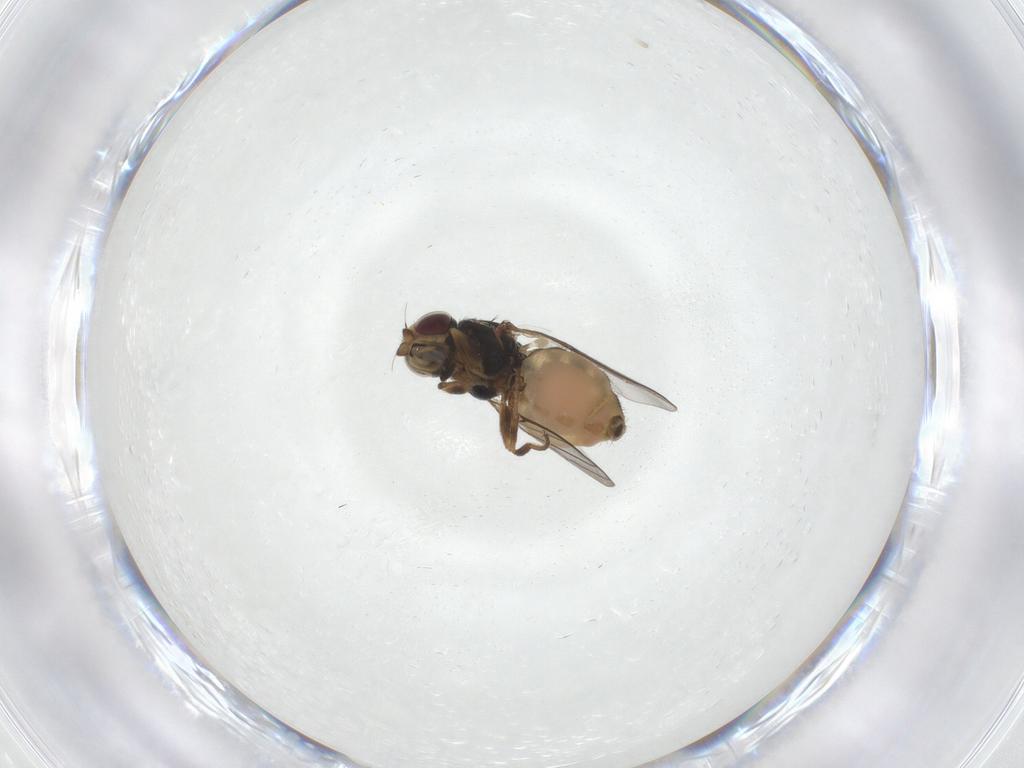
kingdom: Animalia
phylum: Arthropoda
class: Insecta
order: Diptera
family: Chloropidae
